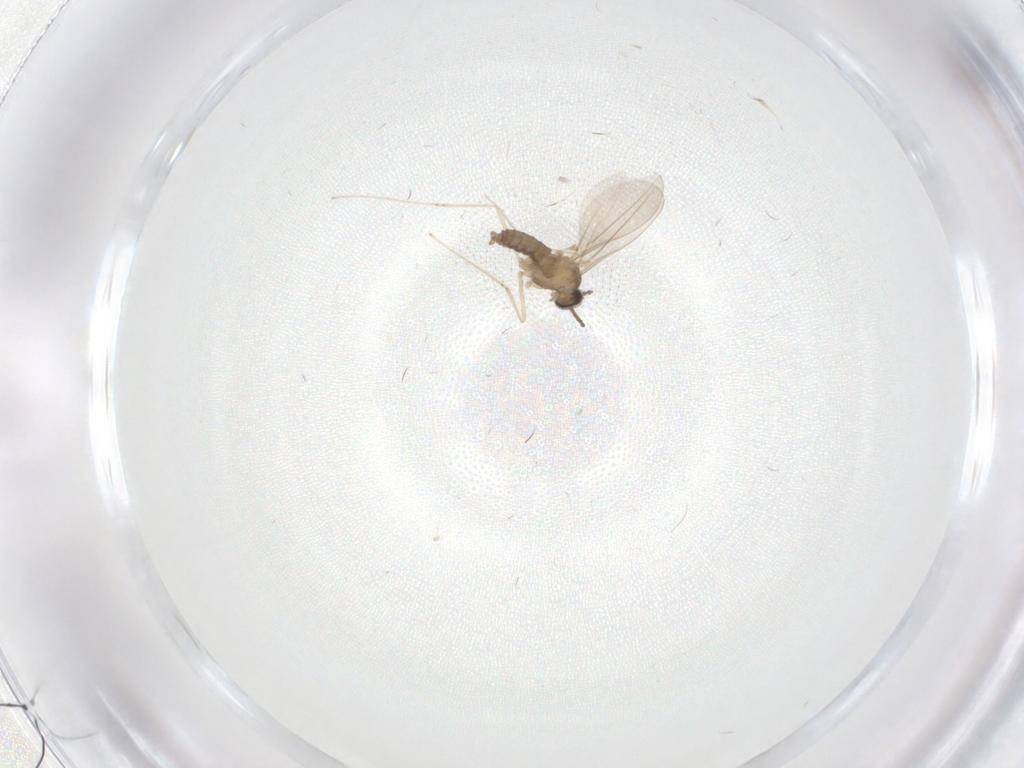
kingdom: Animalia
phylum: Arthropoda
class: Insecta
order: Diptera
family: Cecidomyiidae
